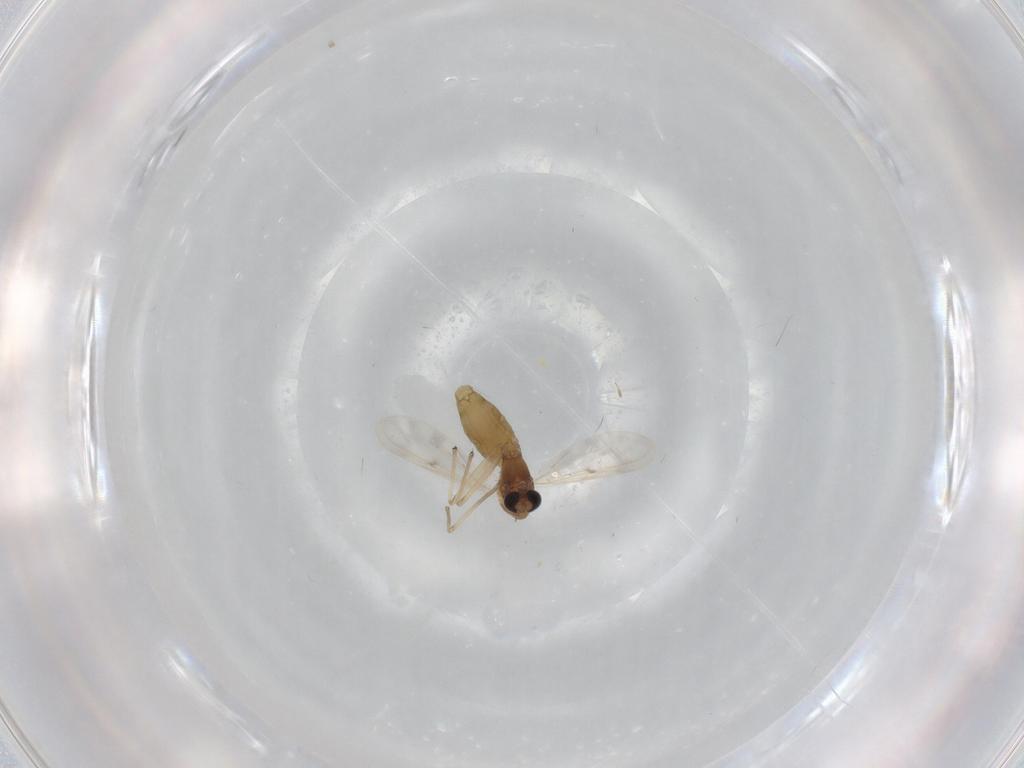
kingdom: Animalia
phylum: Arthropoda
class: Insecta
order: Diptera
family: Chironomidae
